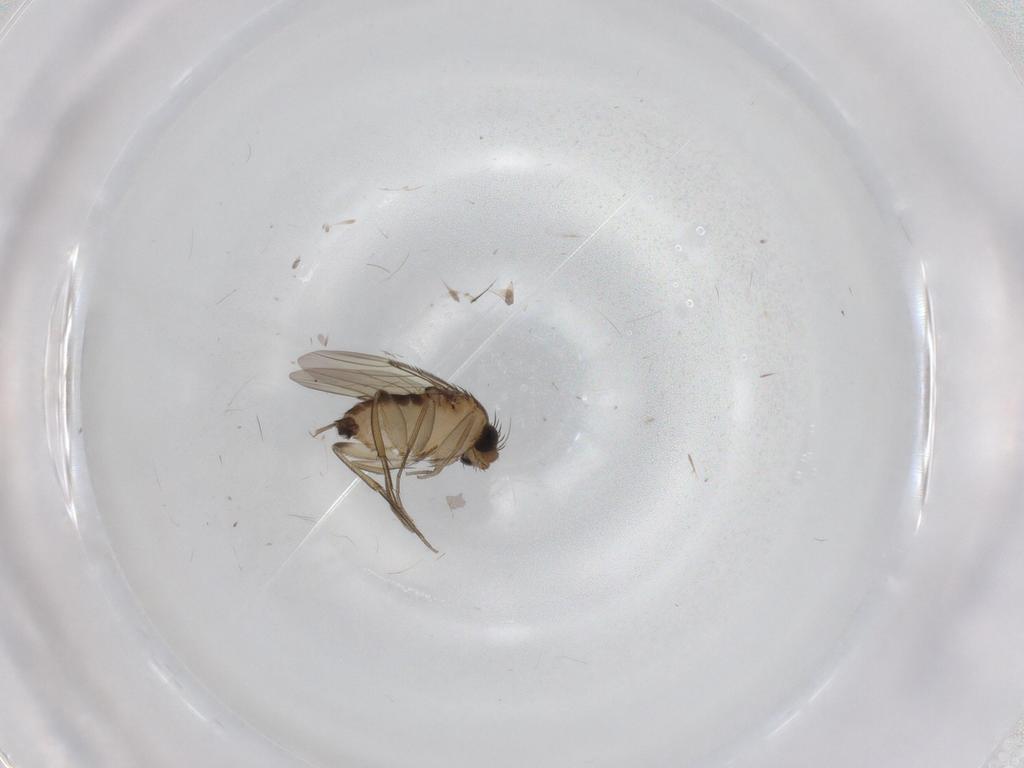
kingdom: Animalia
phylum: Arthropoda
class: Insecta
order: Diptera
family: Phoridae
